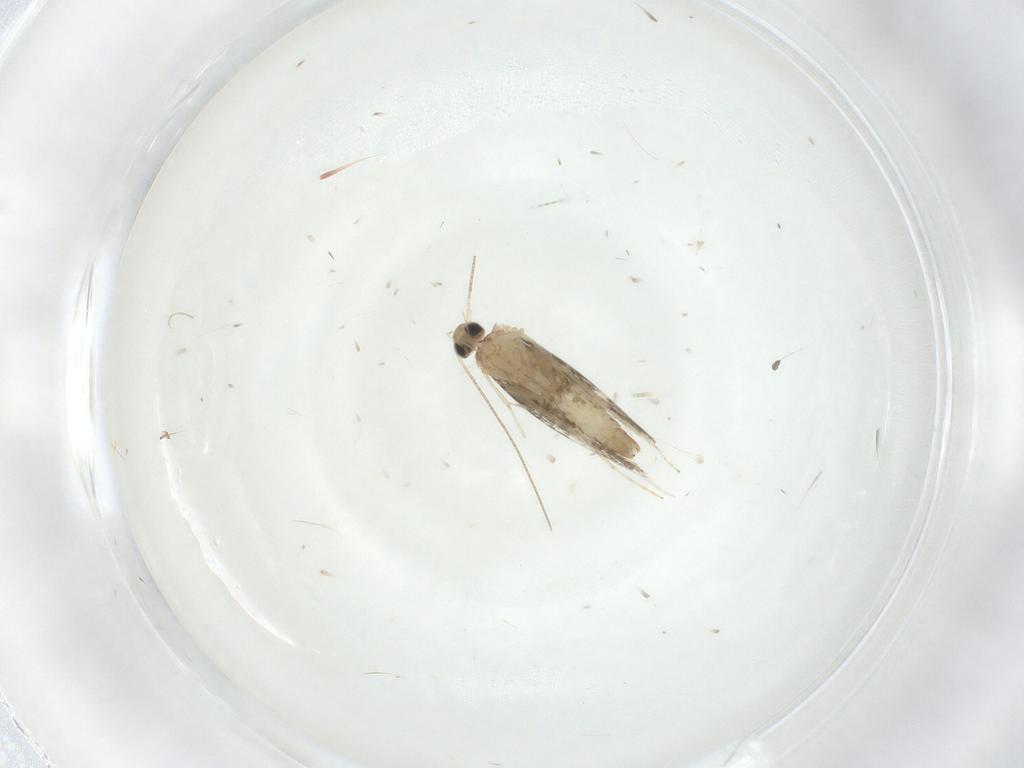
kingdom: Animalia
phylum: Arthropoda
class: Insecta
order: Lepidoptera
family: Tortricidae
